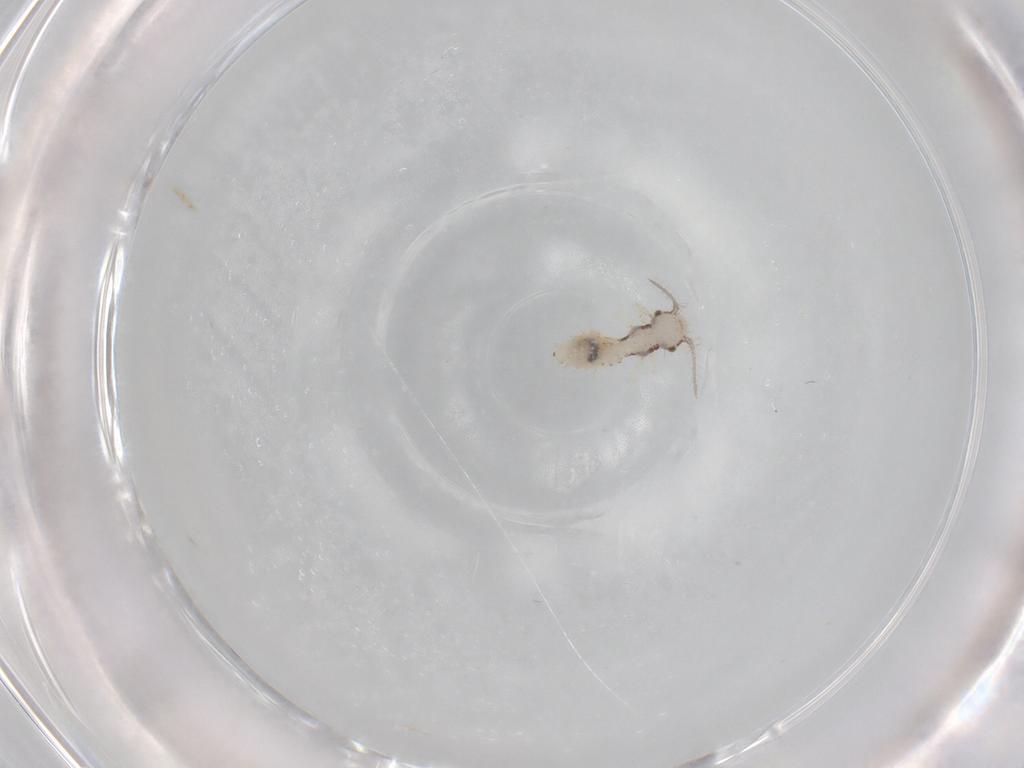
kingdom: Animalia
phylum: Arthropoda
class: Insecta
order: Psocodea
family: Pseudocaeciliidae
